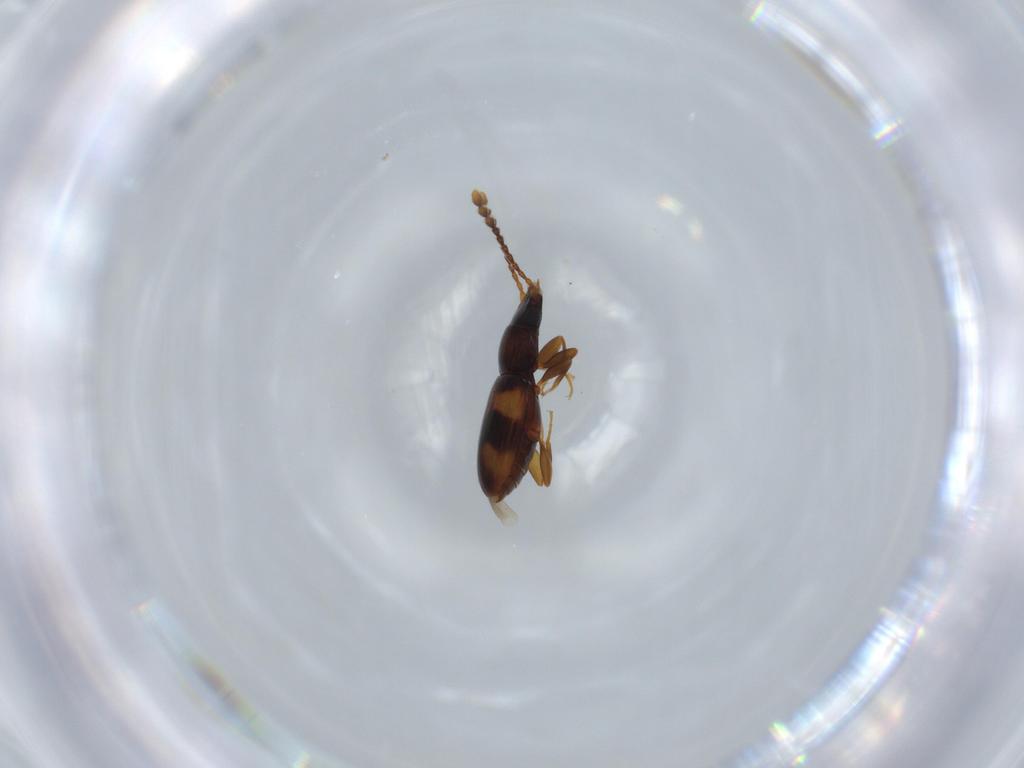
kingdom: Animalia
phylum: Arthropoda
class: Insecta
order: Coleoptera
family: Laemophloeidae
